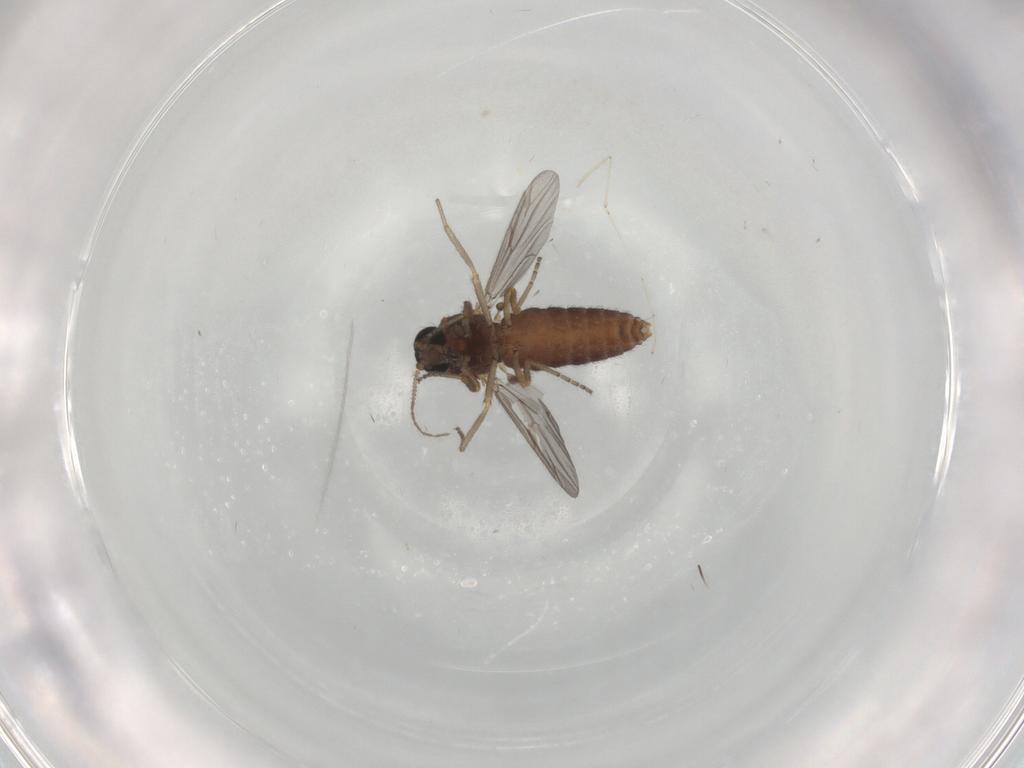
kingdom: Animalia
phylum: Arthropoda
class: Insecta
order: Diptera
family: Ceratopogonidae
